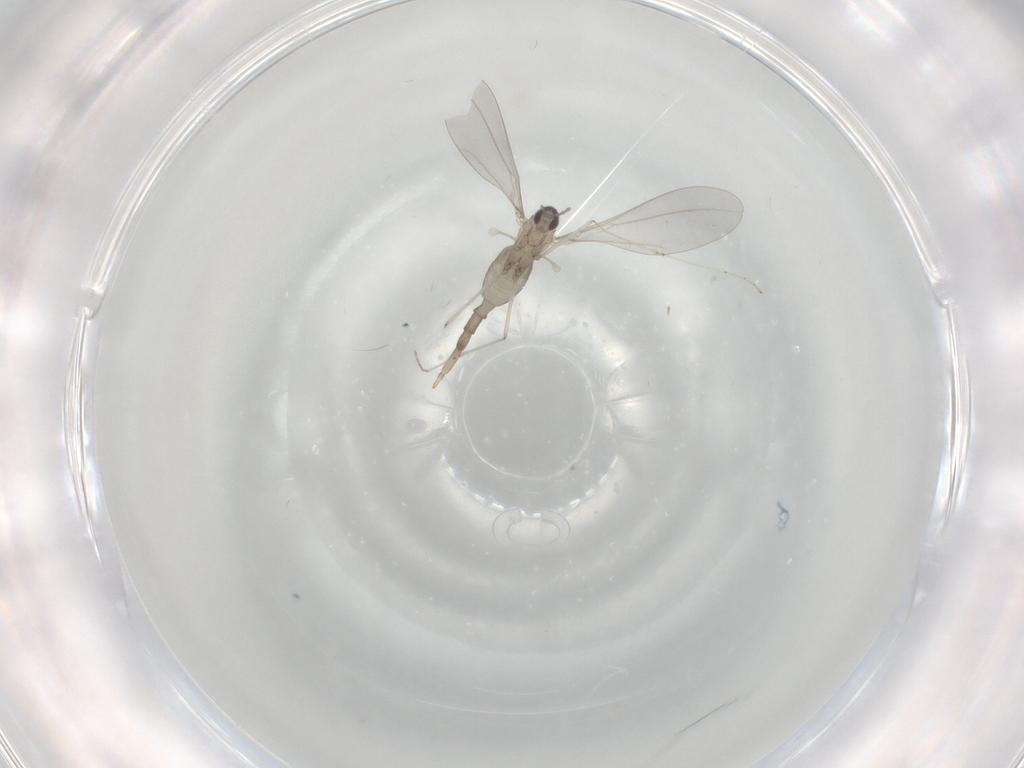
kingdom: Animalia
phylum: Arthropoda
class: Insecta
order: Diptera
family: Cecidomyiidae
